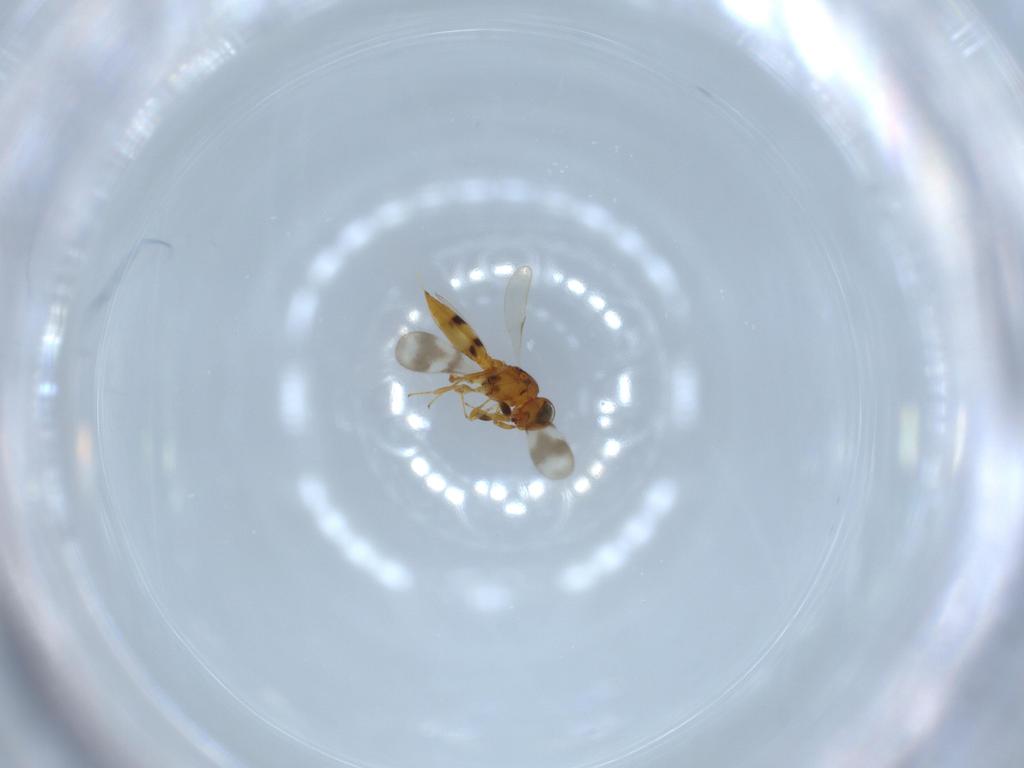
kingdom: Animalia
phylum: Arthropoda
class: Insecta
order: Hymenoptera
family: Scelionidae
